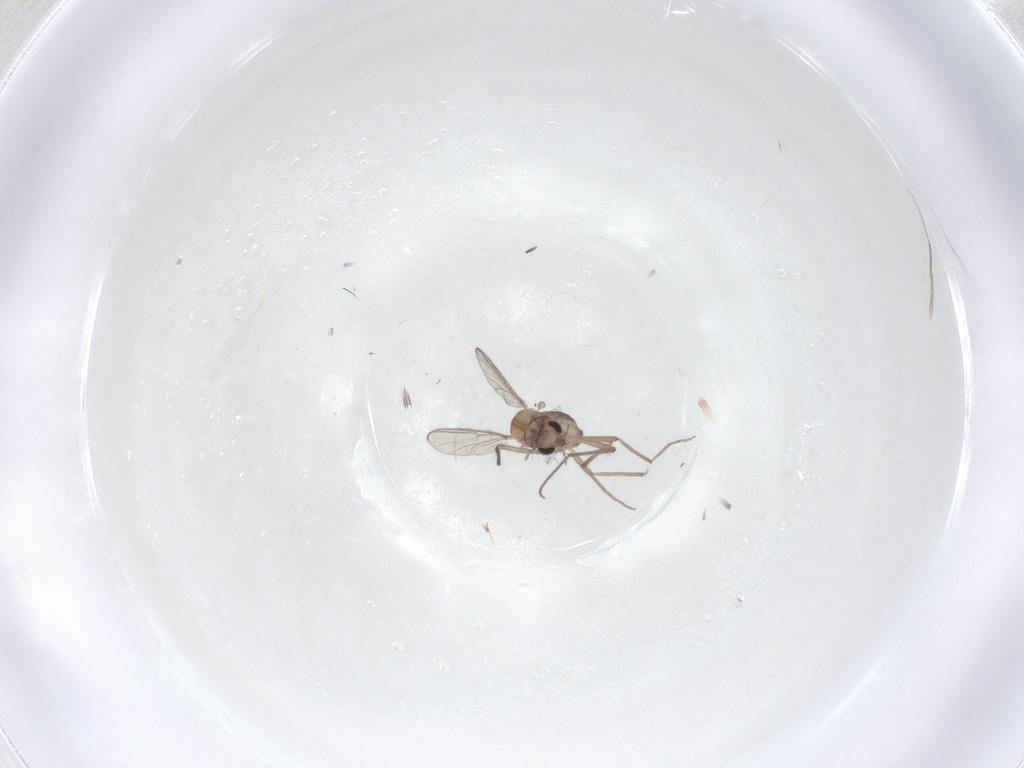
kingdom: Animalia
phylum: Arthropoda
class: Insecta
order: Diptera
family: Chironomidae
